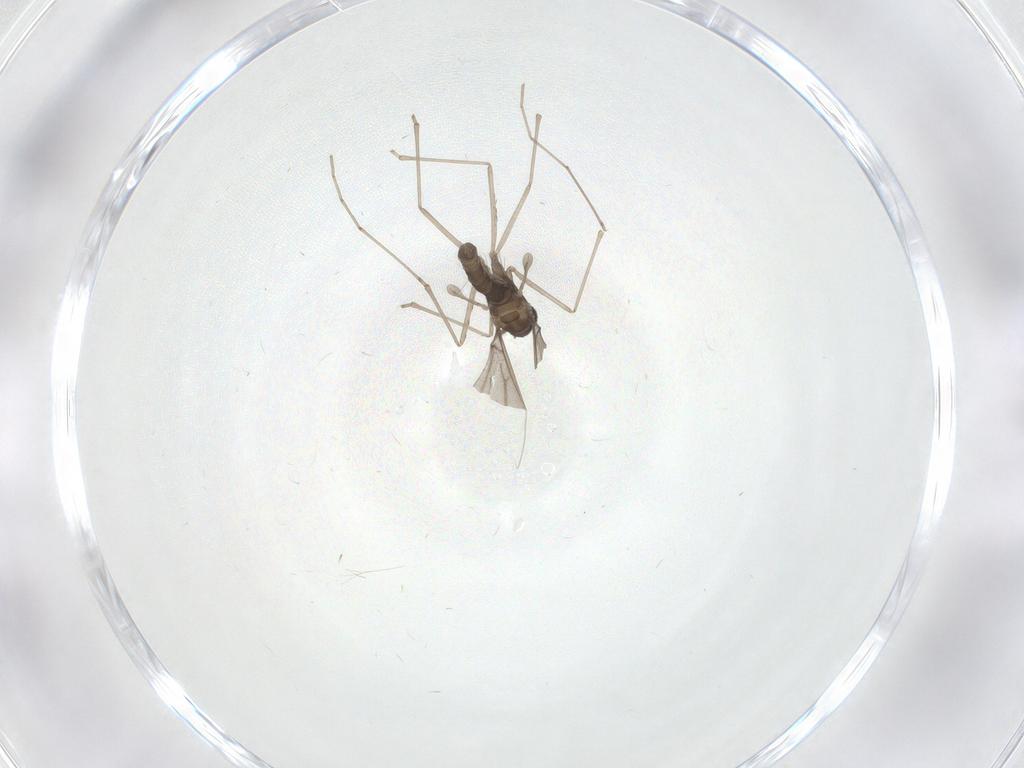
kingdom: Animalia
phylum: Arthropoda
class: Insecta
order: Diptera
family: Cecidomyiidae
